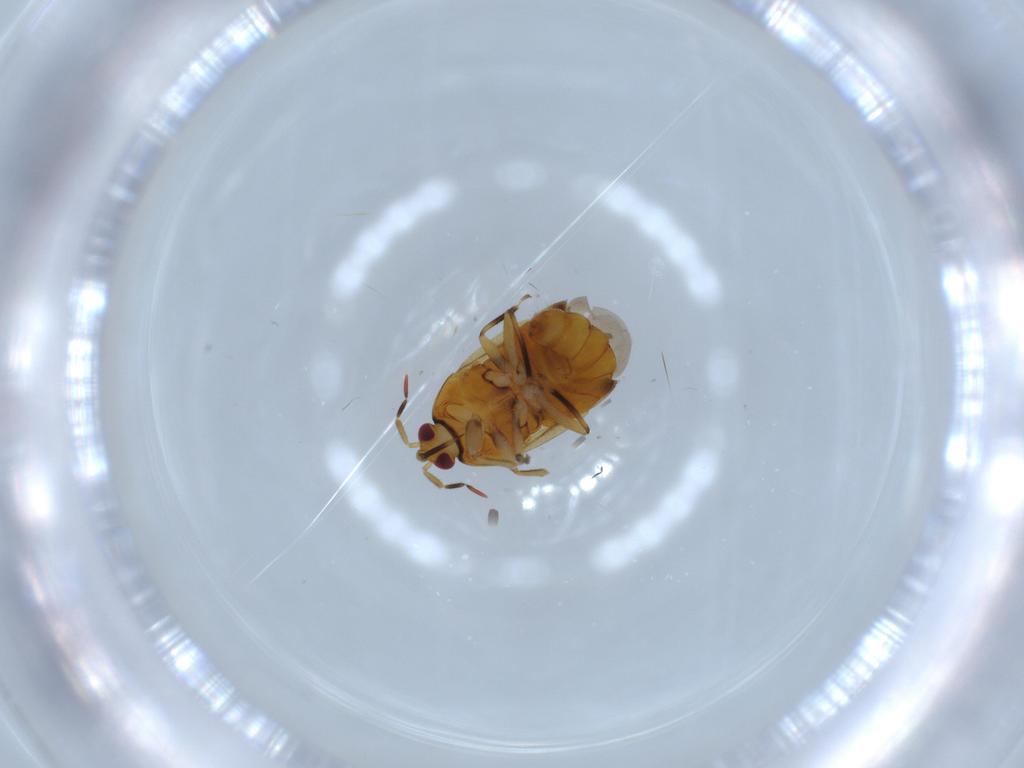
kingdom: Animalia
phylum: Arthropoda
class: Insecta
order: Hemiptera
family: Anthocoridae
